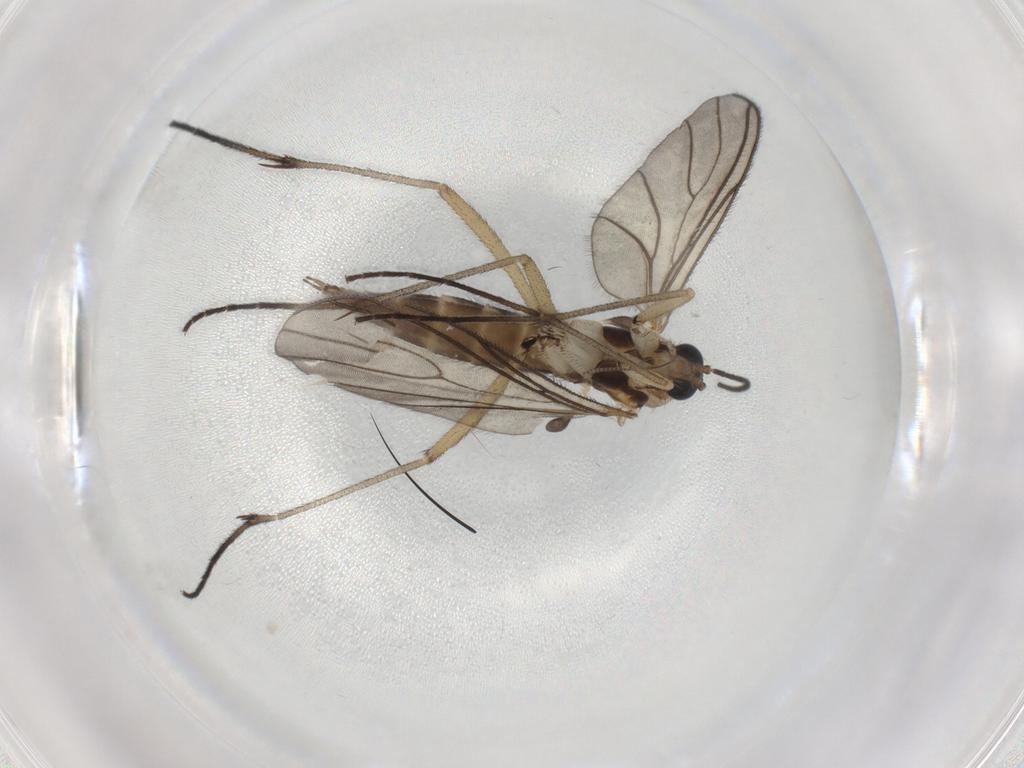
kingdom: Animalia
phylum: Arthropoda
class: Insecta
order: Diptera
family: Sciaridae
